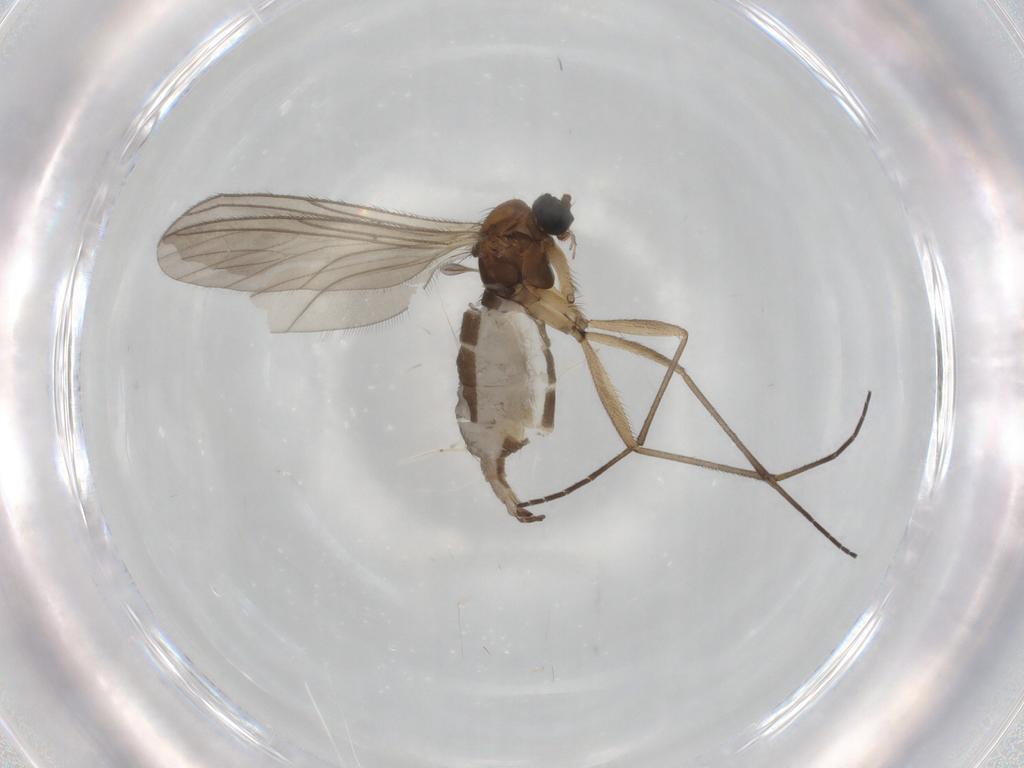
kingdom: Animalia
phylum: Arthropoda
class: Insecta
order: Diptera
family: Sciaridae
